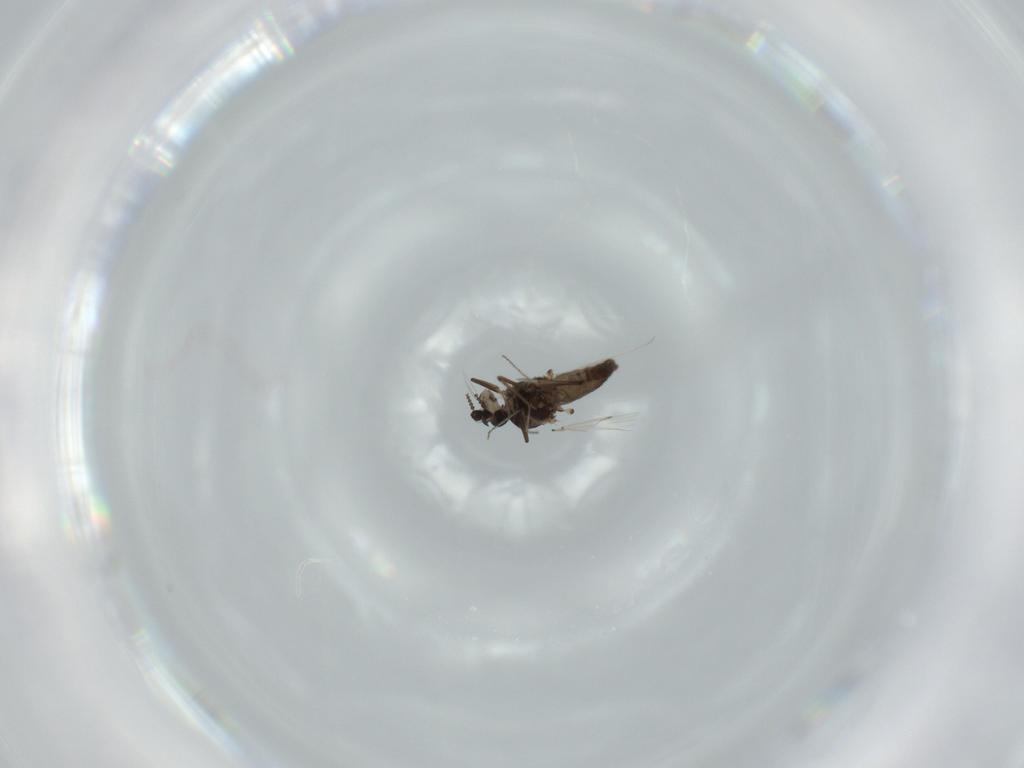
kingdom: Animalia
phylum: Arthropoda
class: Insecta
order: Diptera
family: Ceratopogonidae
